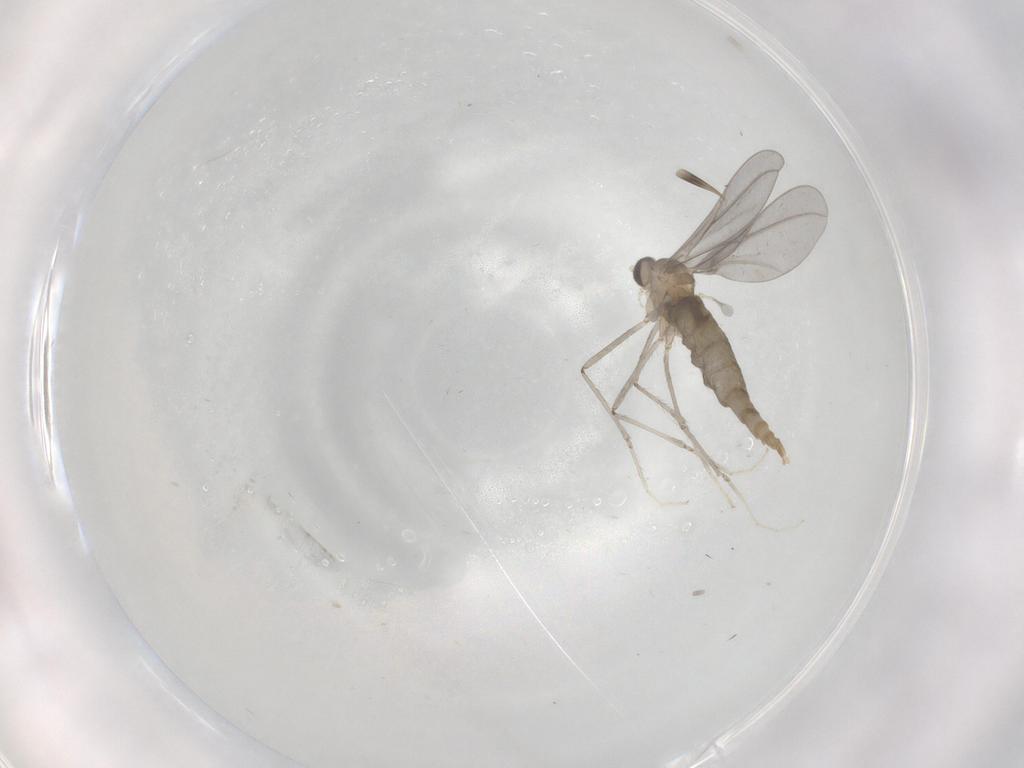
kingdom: Animalia
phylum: Arthropoda
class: Insecta
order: Diptera
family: Cecidomyiidae
